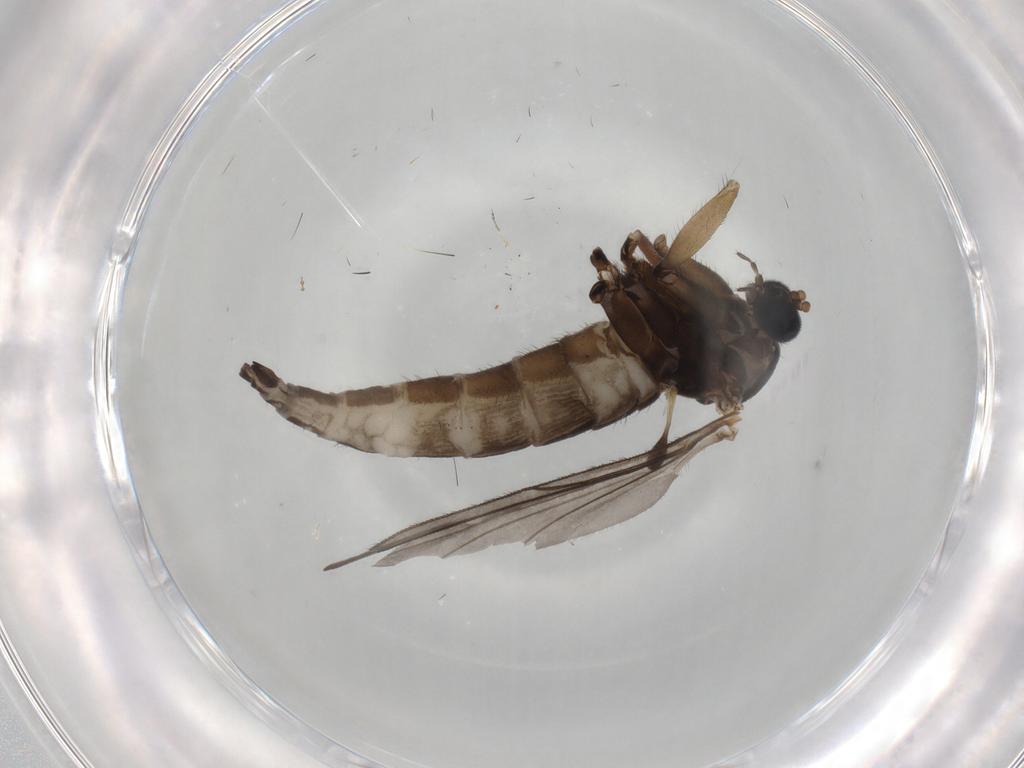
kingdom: Animalia
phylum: Arthropoda
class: Insecta
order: Diptera
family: Sciaridae
